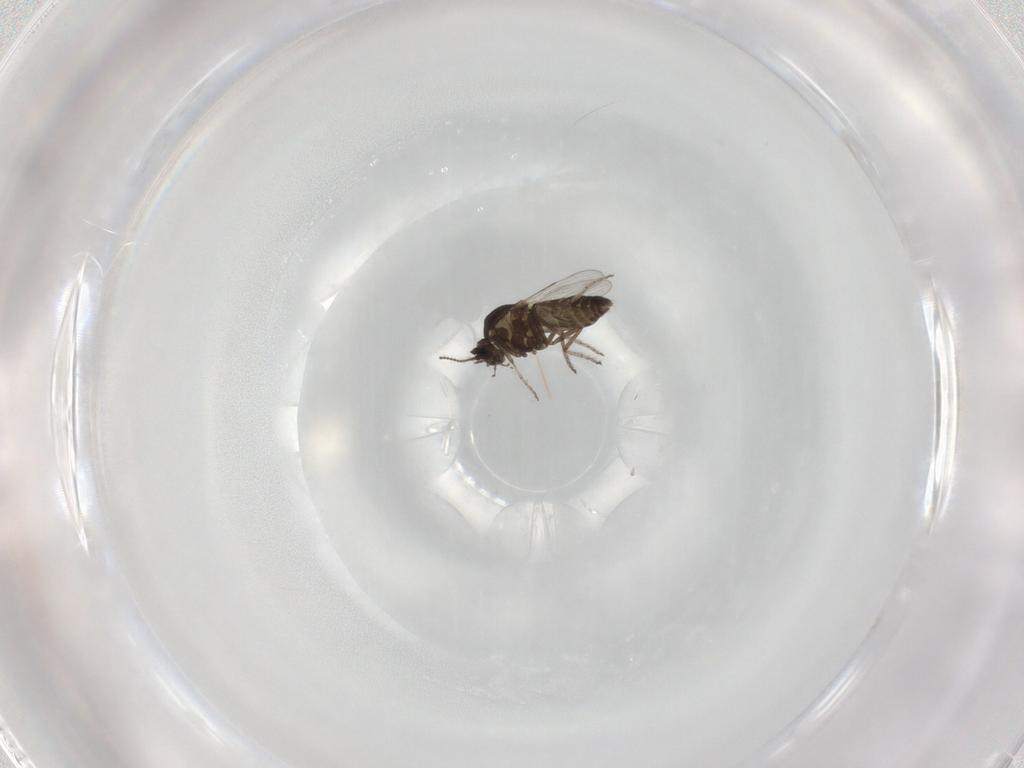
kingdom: Animalia
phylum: Arthropoda
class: Insecta
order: Diptera
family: Ceratopogonidae
